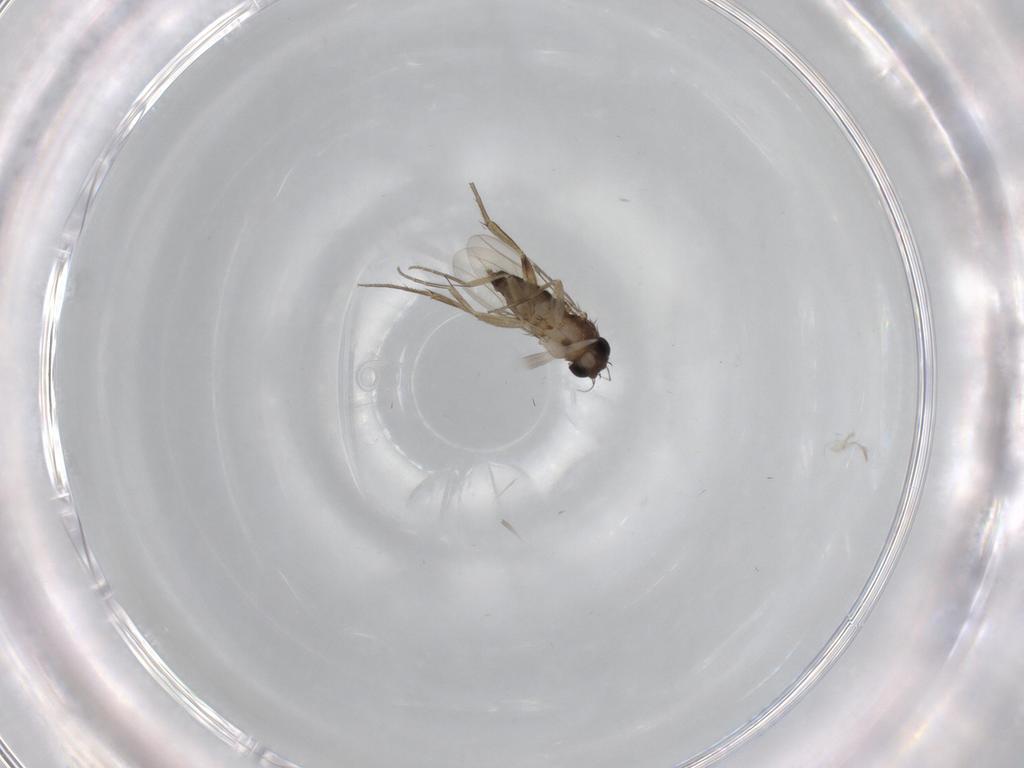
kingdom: Animalia
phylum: Arthropoda
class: Insecta
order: Diptera
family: Phoridae
